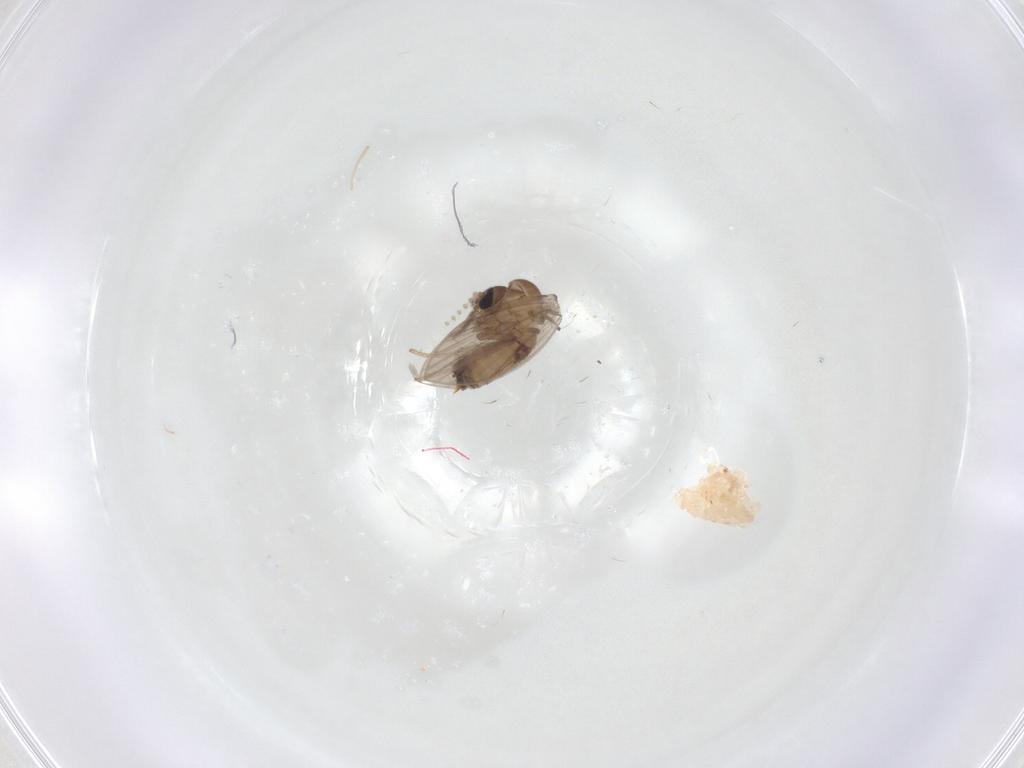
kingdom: Animalia
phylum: Arthropoda
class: Insecta
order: Diptera
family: Psychodidae
